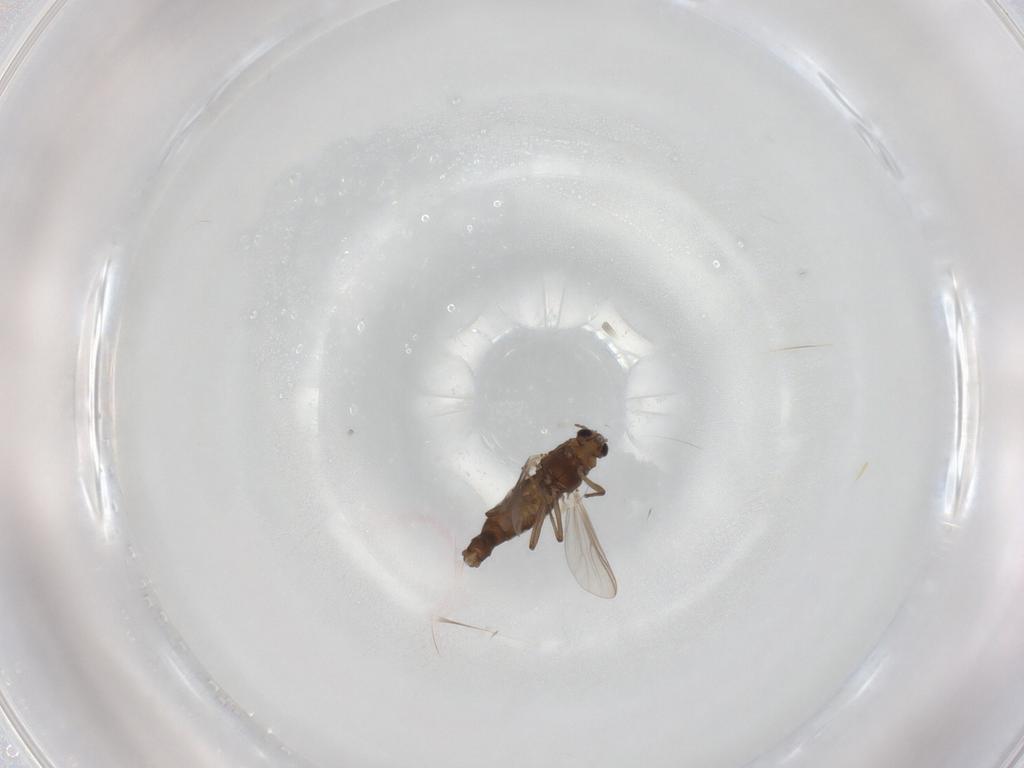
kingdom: Animalia
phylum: Arthropoda
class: Insecta
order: Diptera
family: Chironomidae
